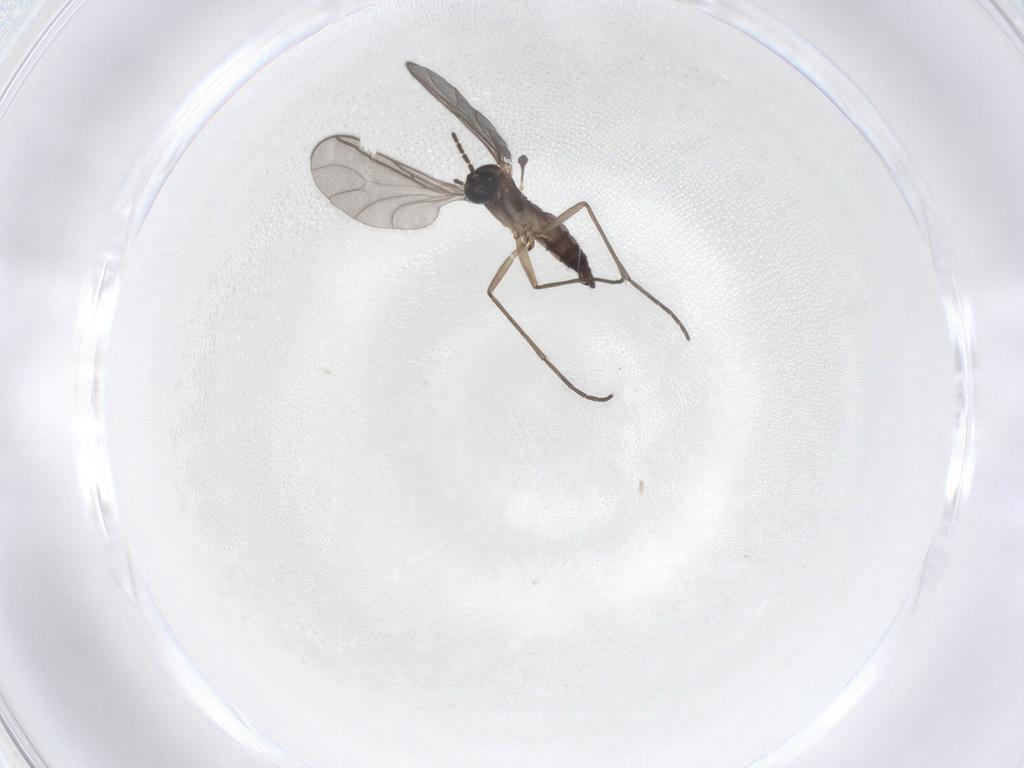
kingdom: Animalia
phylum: Arthropoda
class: Insecta
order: Diptera
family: Sciaridae
